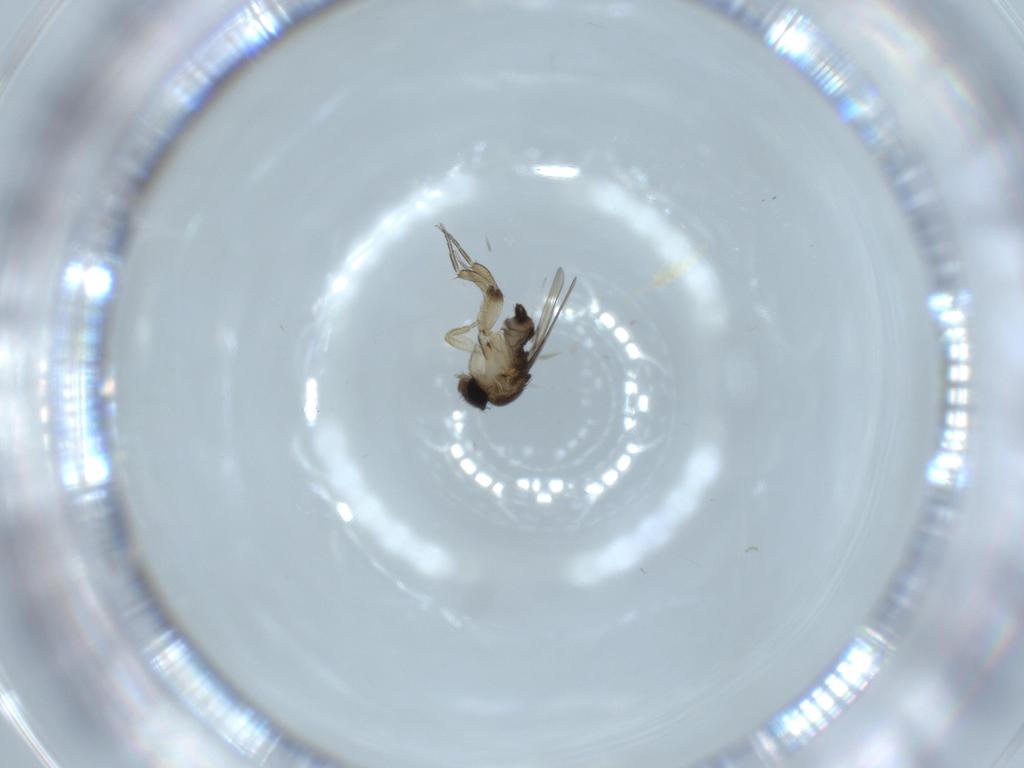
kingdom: Animalia
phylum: Arthropoda
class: Insecta
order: Diptera
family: Phoridae
